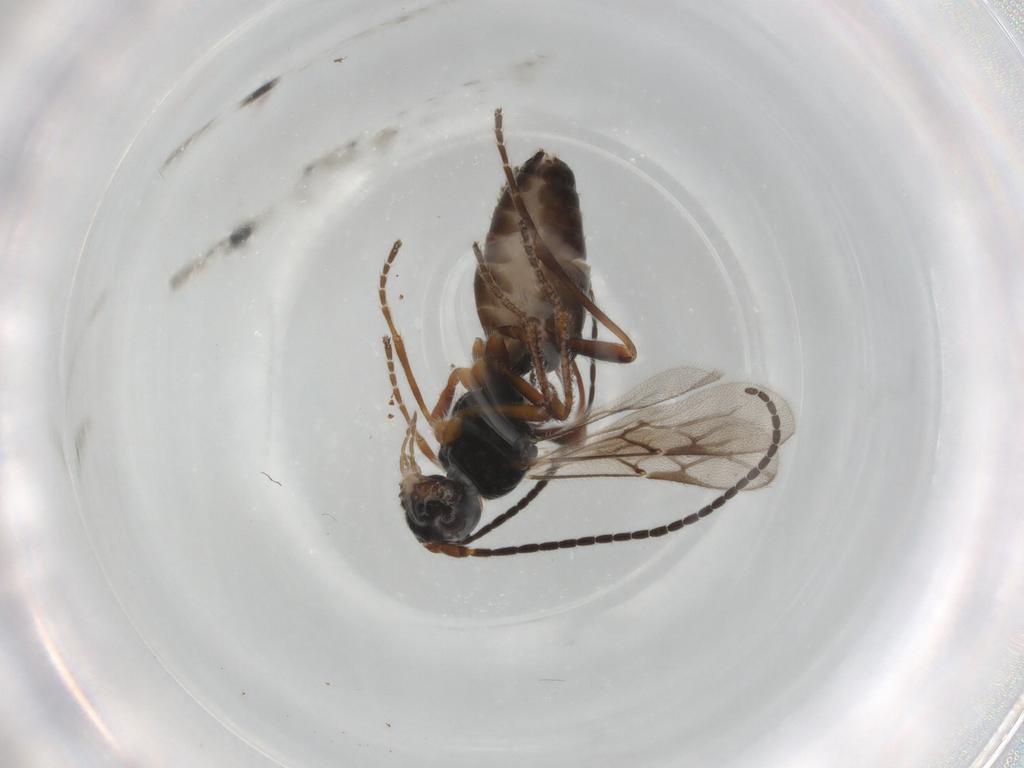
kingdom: Animalia
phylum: Arthropoda
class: Insecta
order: Hymenoptera
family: Braconidae
